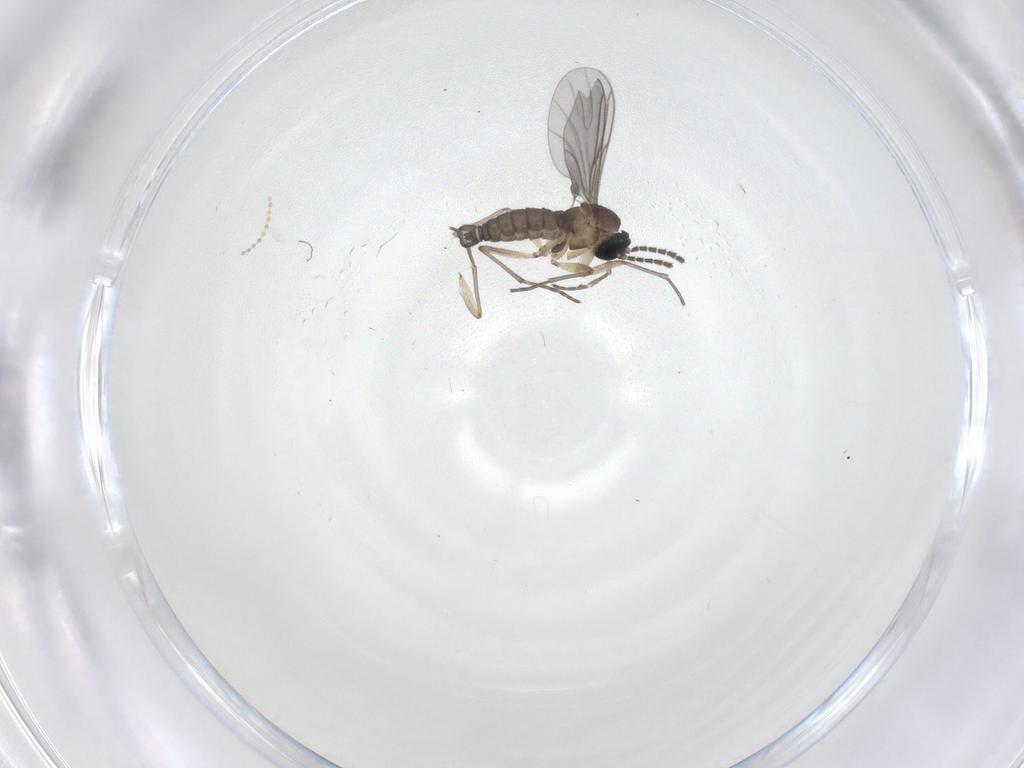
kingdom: Animalia
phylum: Arthropoda
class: Insecta
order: Diptera
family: Sciaridae
